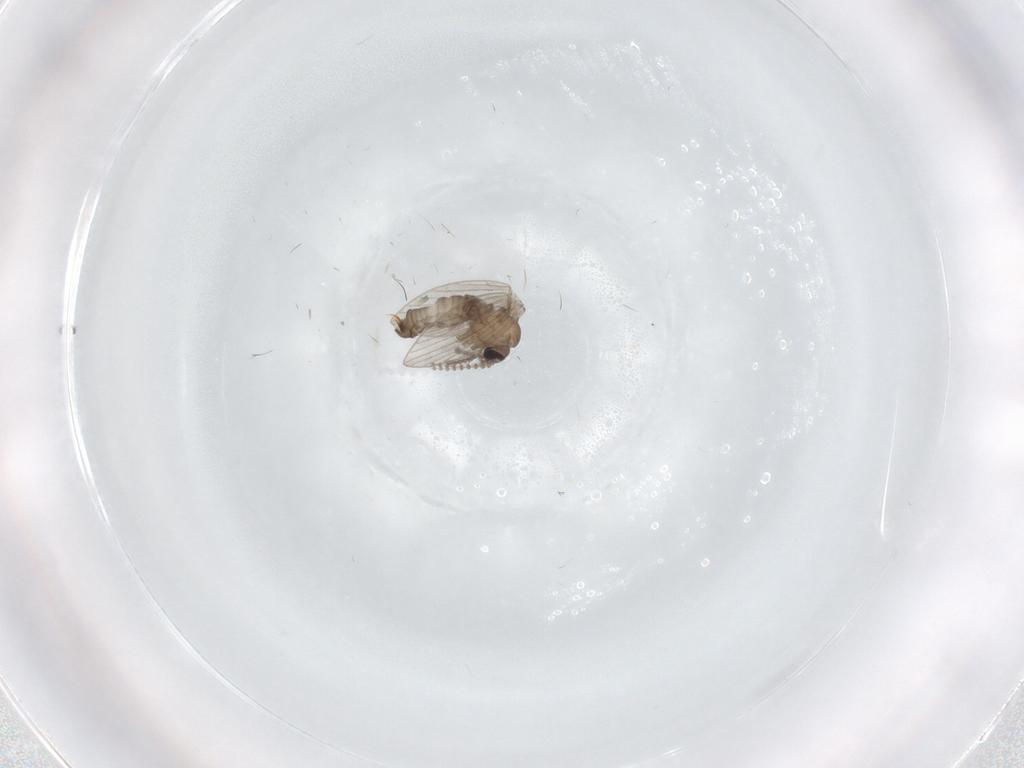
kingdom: Animalia
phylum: Arthropoda
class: Insecta
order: Diptera
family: Psychodidae
